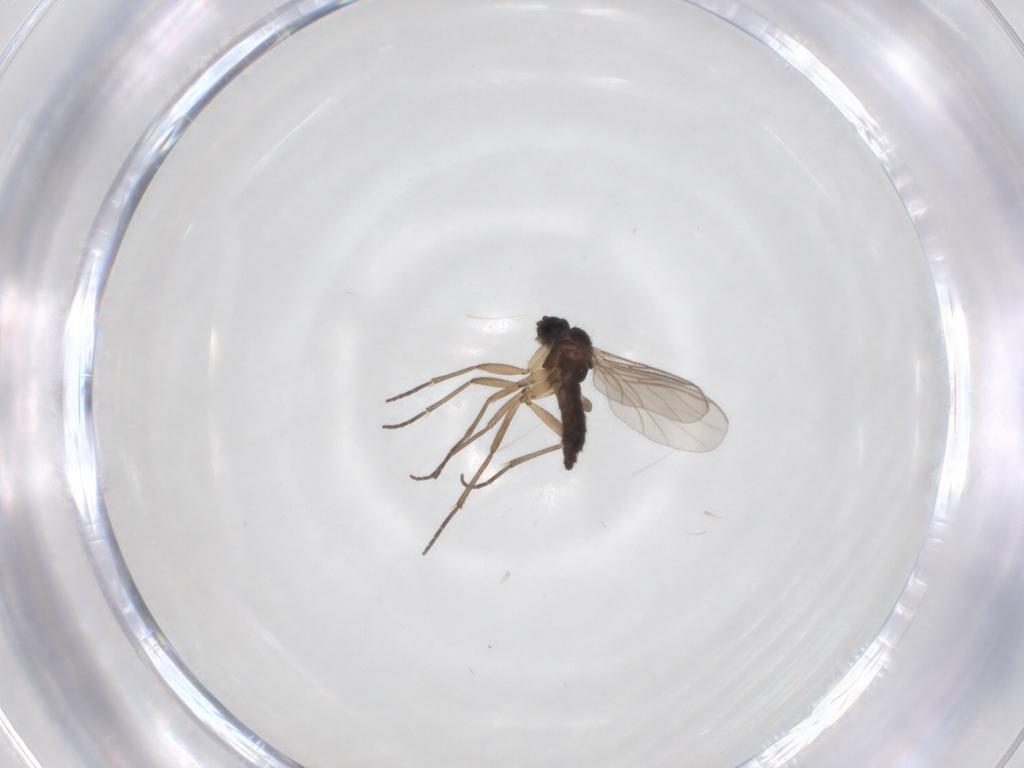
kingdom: Animalia
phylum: Arthropoda
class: Insecta
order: Diptera
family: Sciaridae
